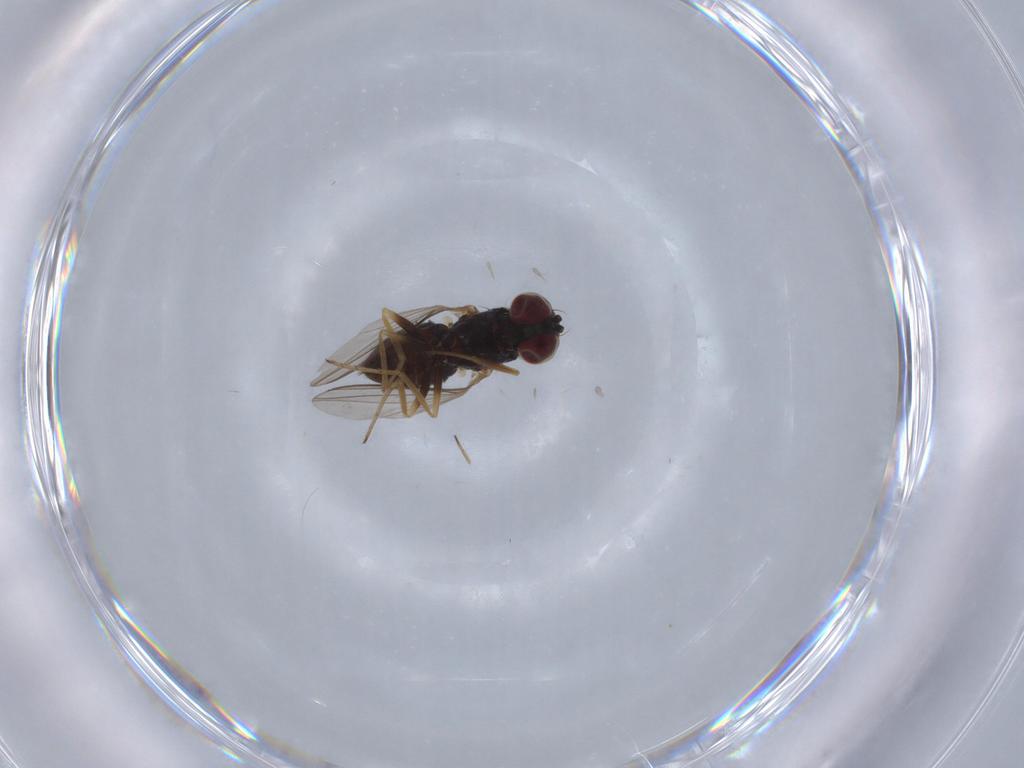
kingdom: Animalia
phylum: Arthropoda
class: Insecta
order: Diptera
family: Dolichopodidae
